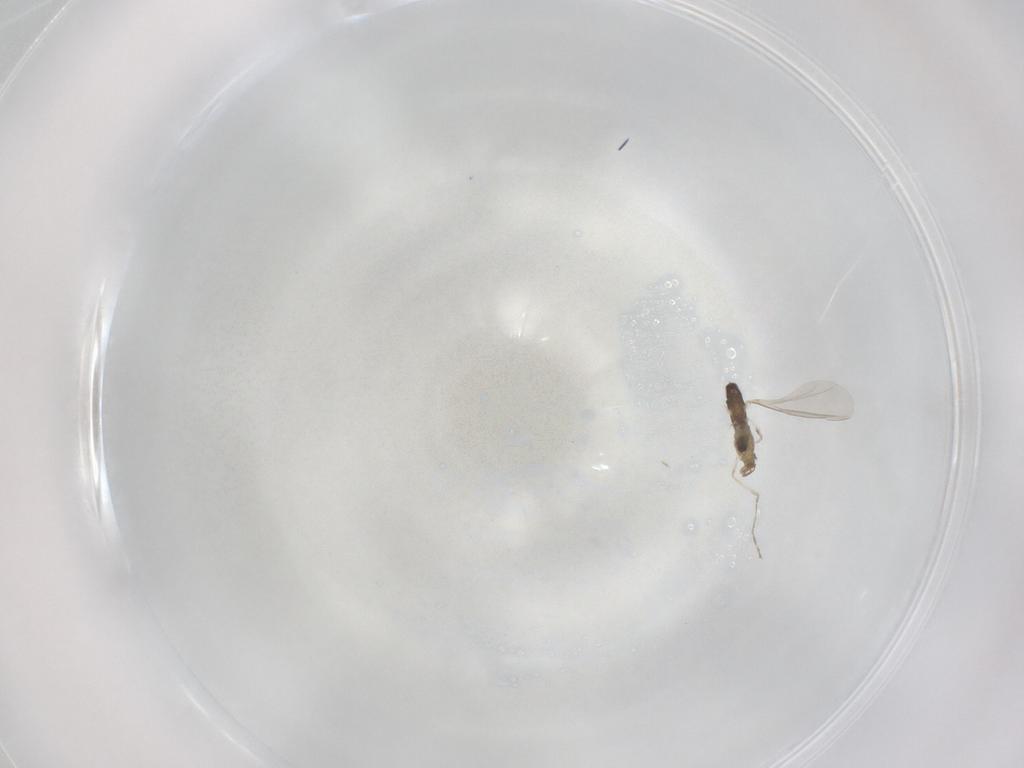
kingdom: Animalia
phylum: Arthropoda
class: Insecta
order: Diptera
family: Cecidomyiidae
